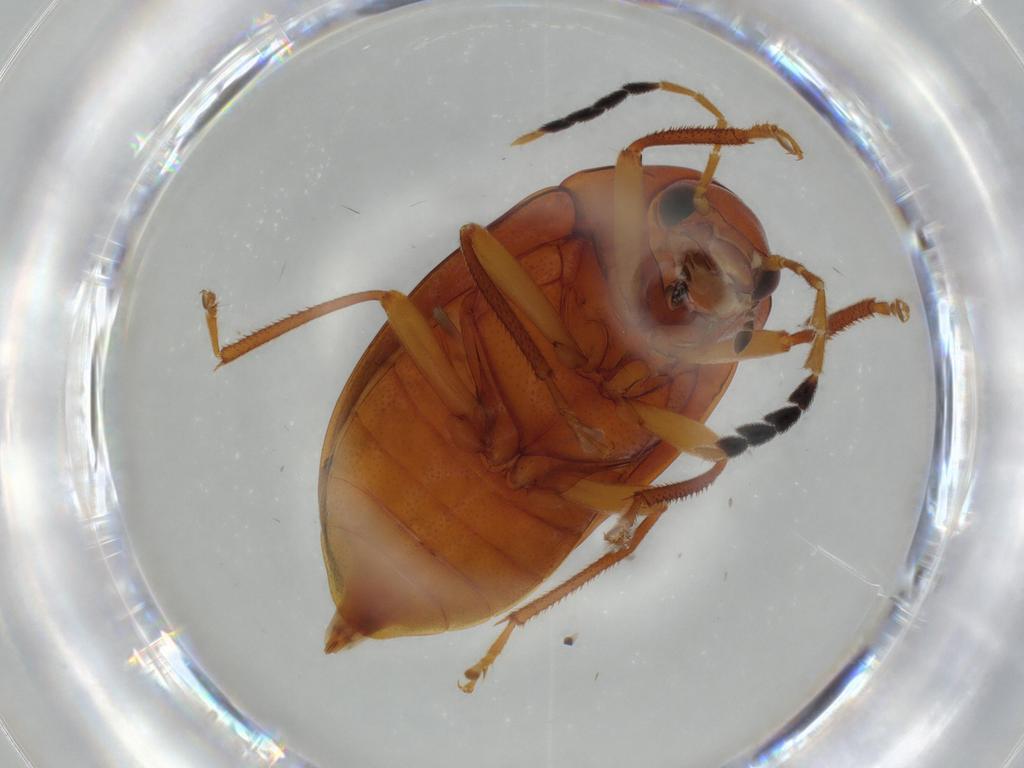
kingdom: Animalia
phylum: Arthropoda
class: Insecta
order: Coleoptera
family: Ptilodactylidae
